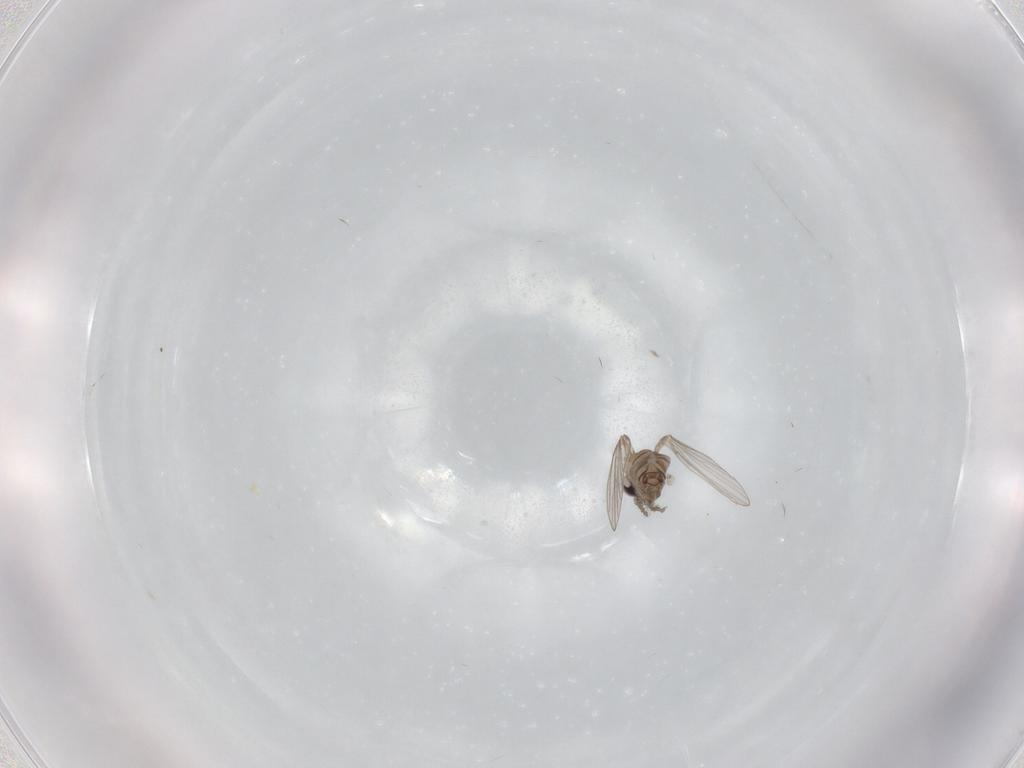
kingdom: Animalia
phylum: Arthropoda
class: Insecta
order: Diptera
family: Psychodidae
